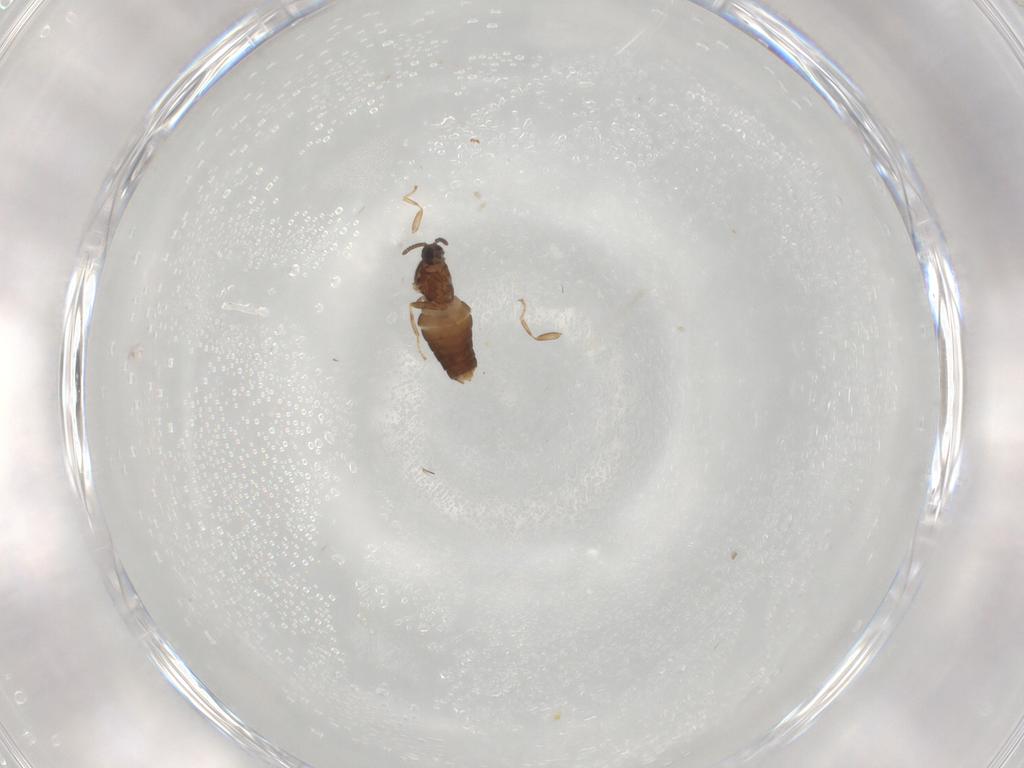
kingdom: Animalia
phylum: Arthropoda
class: Insecta
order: Diptera
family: Scatopsidae
